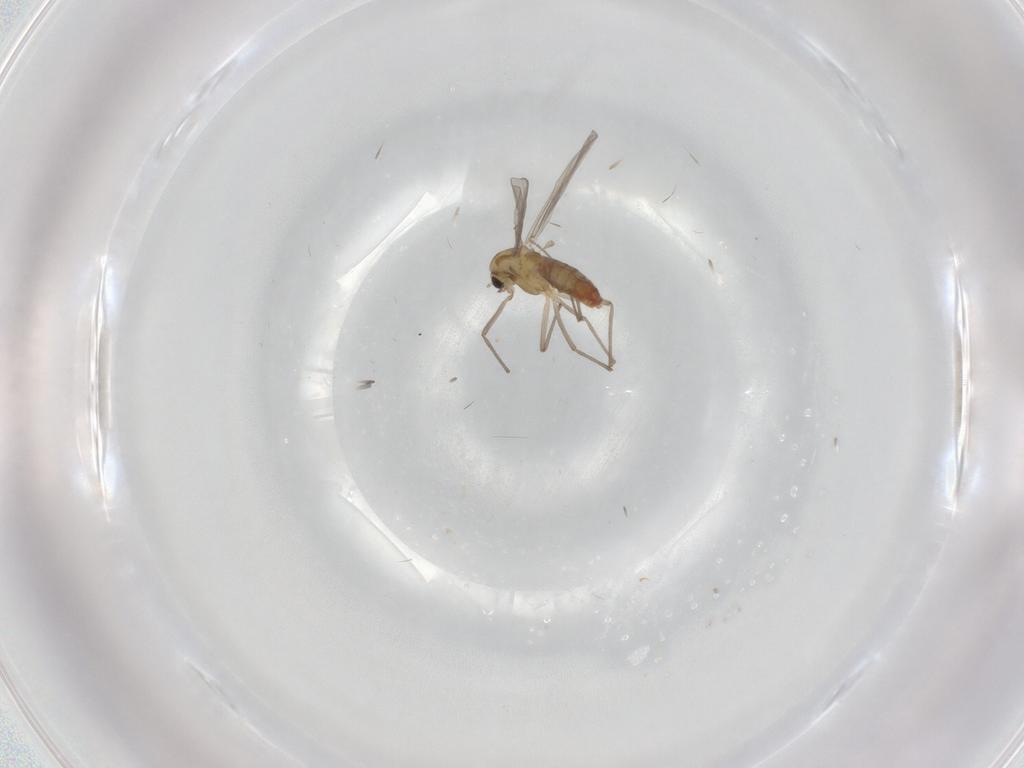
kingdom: Animalia
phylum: Arthropoda
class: Insecta
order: Diptera
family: Chironomidae
